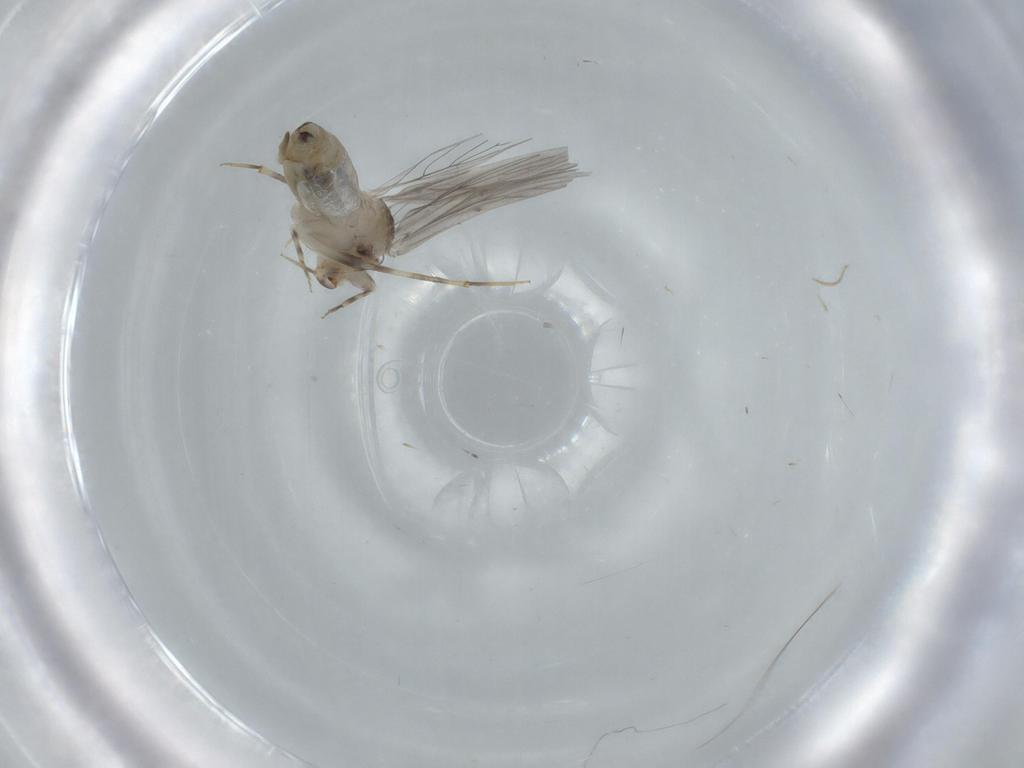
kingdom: Animalia
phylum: Arthropoda
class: Insecta
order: Psocodea
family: Lepidopsocidae
